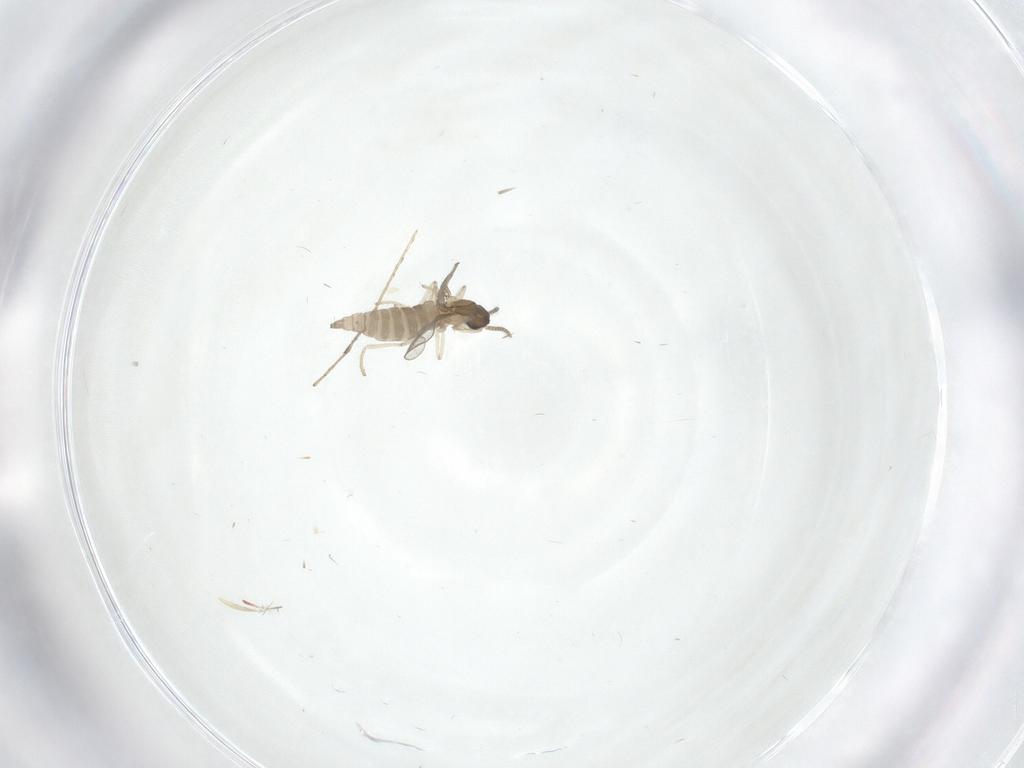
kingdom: Animalia
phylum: Arthropoda
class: Insecta
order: Diptera
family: Cecidomyiidae
